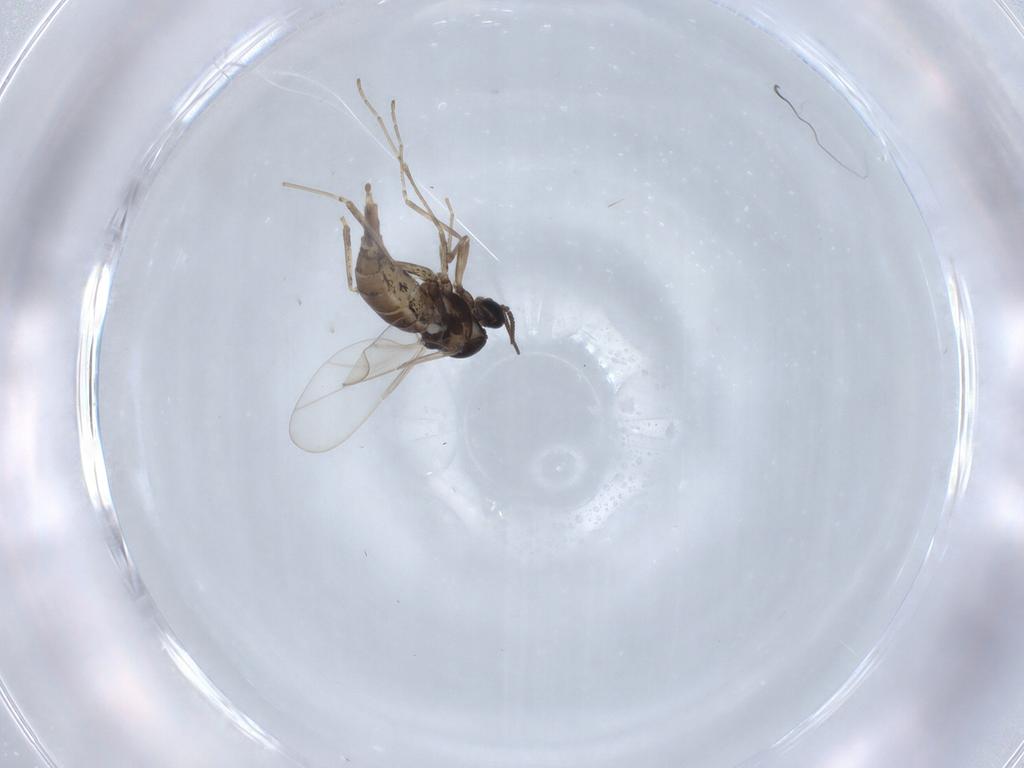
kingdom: Animalia
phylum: Arthropoda
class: Insecta
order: Diptera
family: Cecidomyiidae
